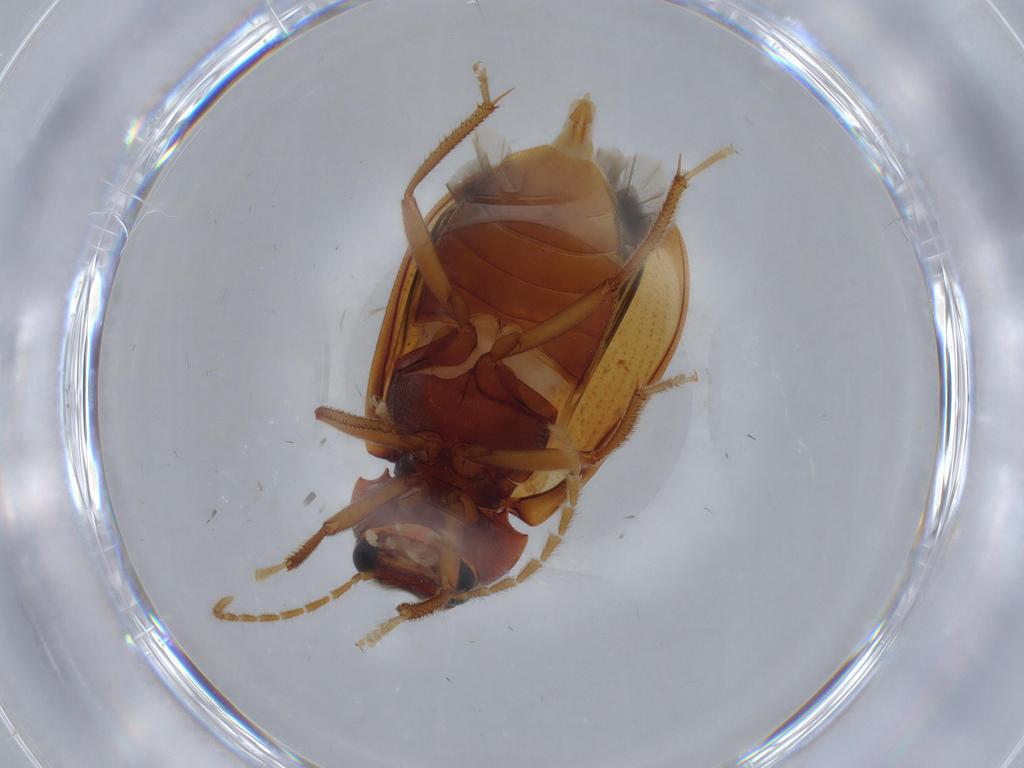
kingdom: Animalia
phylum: Arthropoda
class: Insecta
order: Coleoptera
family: Ptilodactylidae
